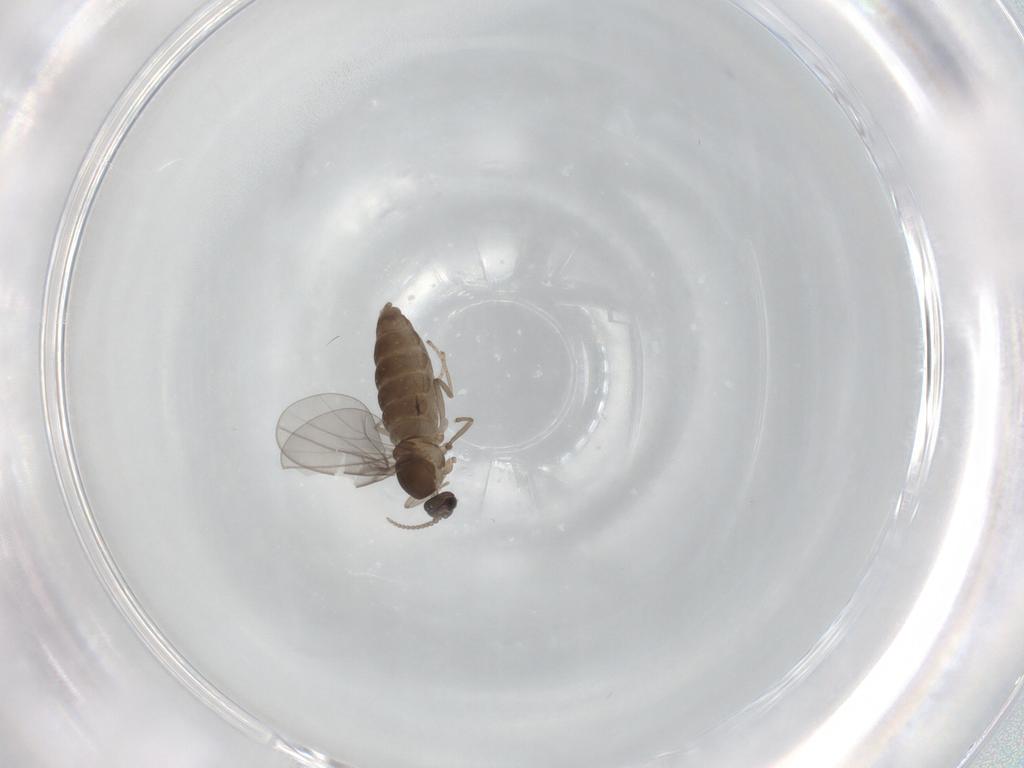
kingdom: Animalia
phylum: Arthropoda
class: Insecta
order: Diptera
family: Cecidomyiidae
